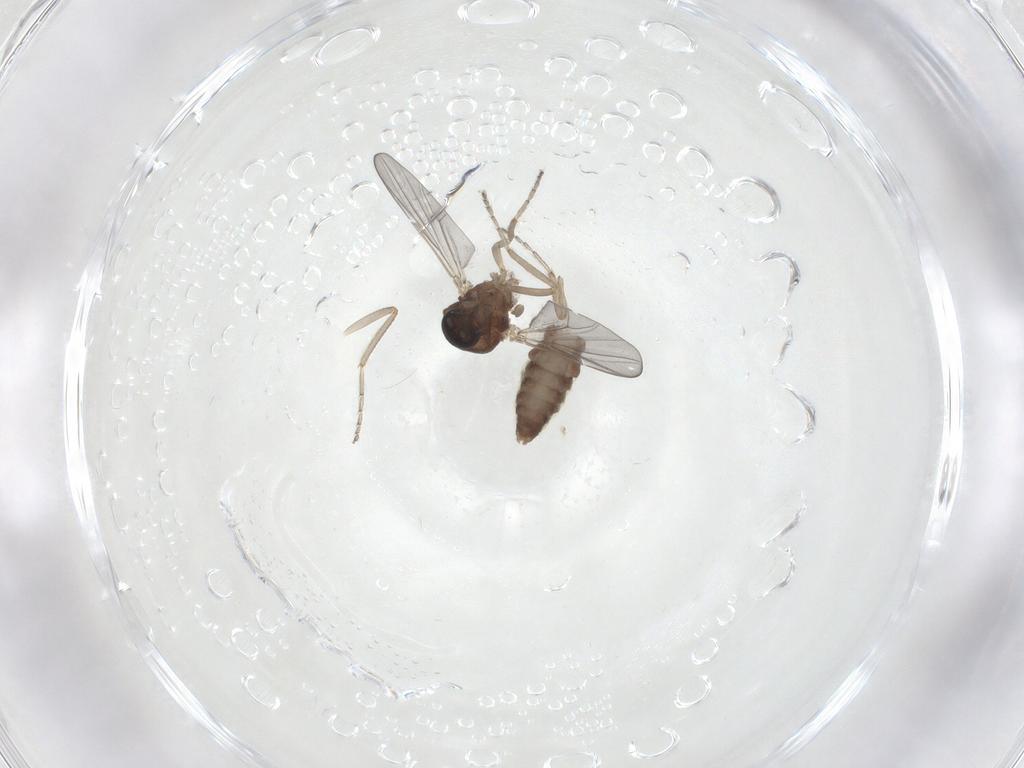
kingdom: Animalia
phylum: Arthropoda
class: Insecta
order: Diptera
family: Ceratopogonidae
